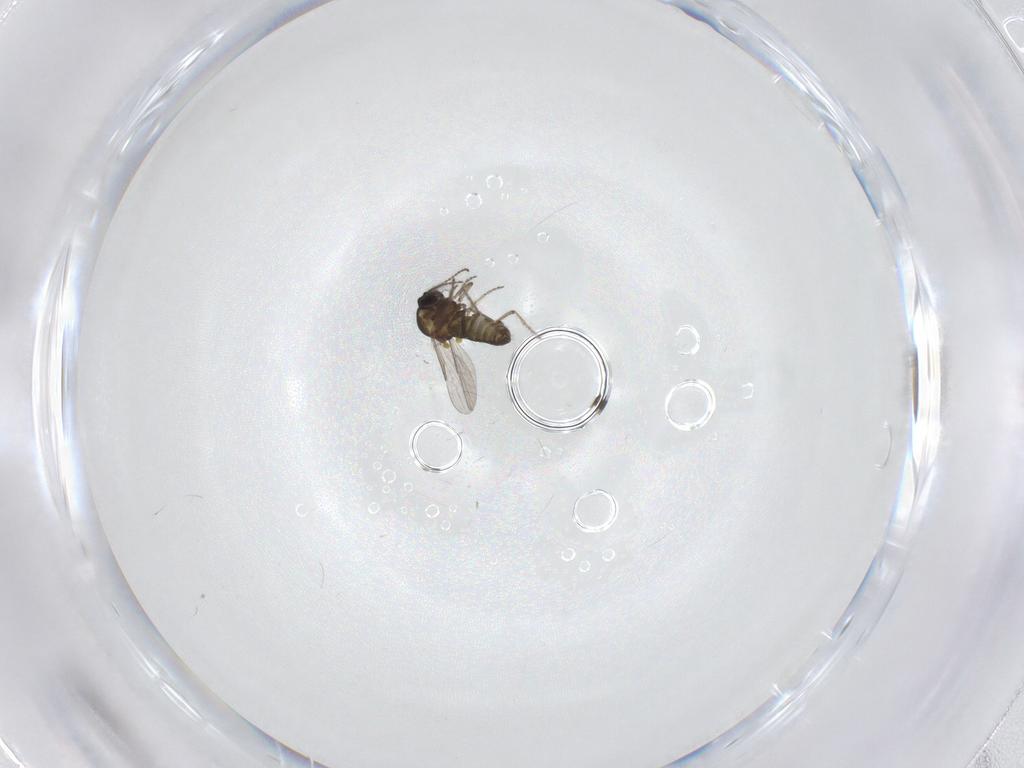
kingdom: Animalia
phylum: Arthropoda
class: Insecta
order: Diptera
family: Ceratopogonidae
